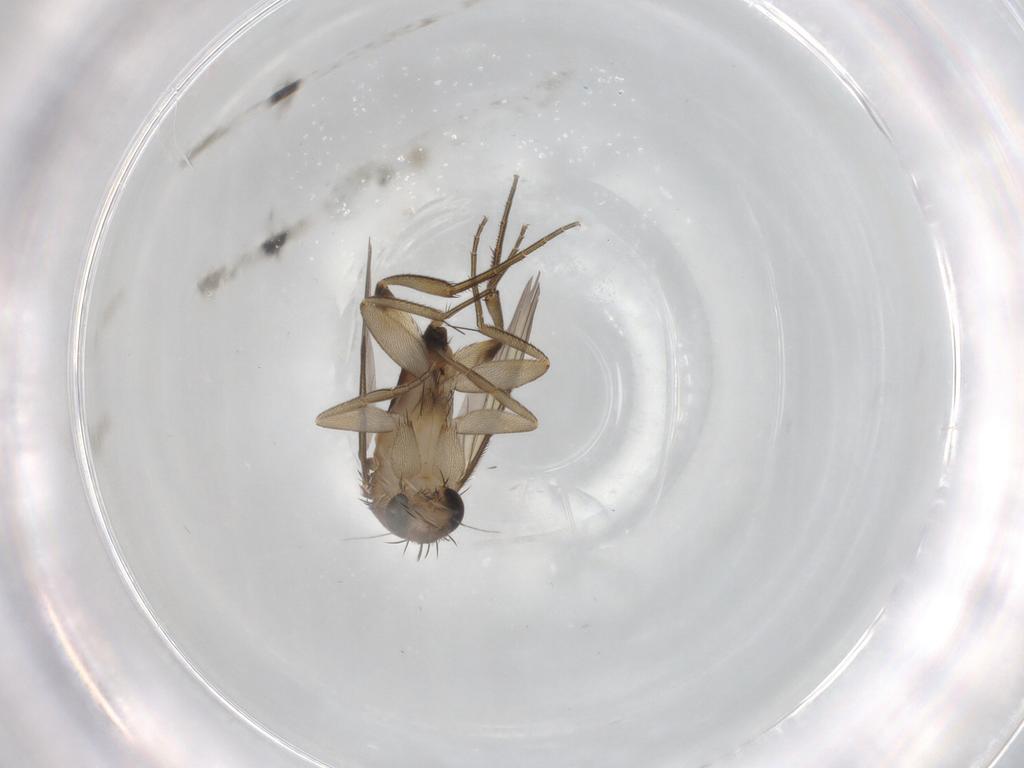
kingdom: Animalia
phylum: Arthropoda
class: Insecta
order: Diptera
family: Phoridae
